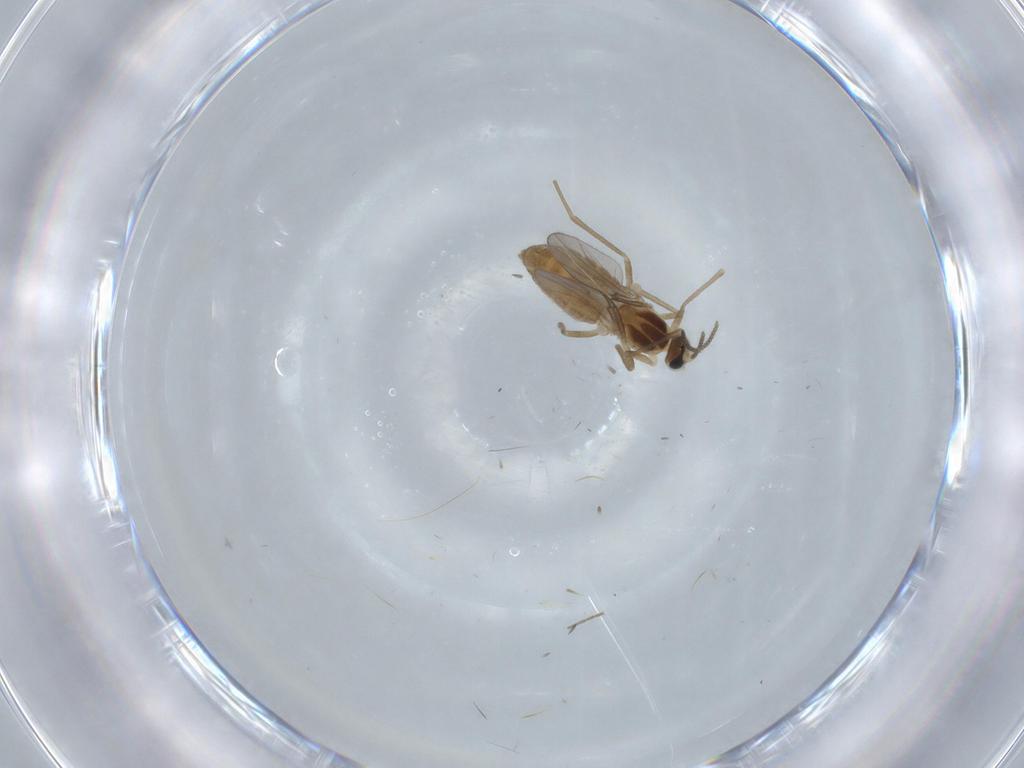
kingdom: Animalia
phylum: Arthropoda
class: Insecta
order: Diptera
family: Cecidomyiidae
